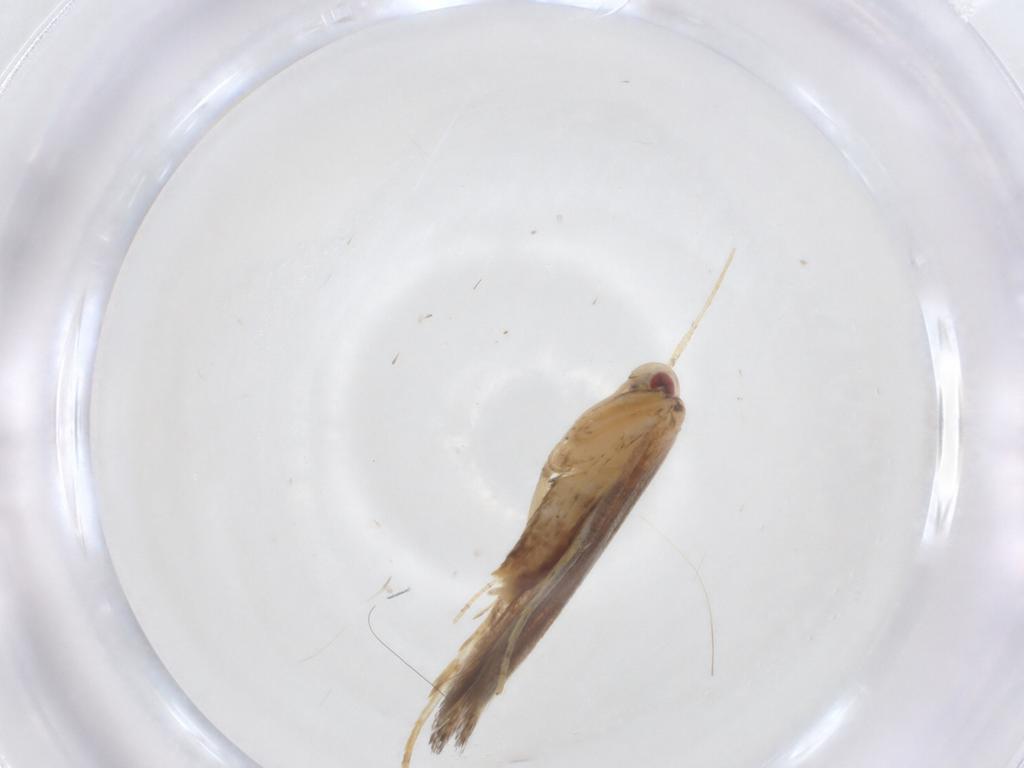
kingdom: Animalia
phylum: Arthropoda
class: Insecta
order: Lepidoptera
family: Cosmopterigidae
